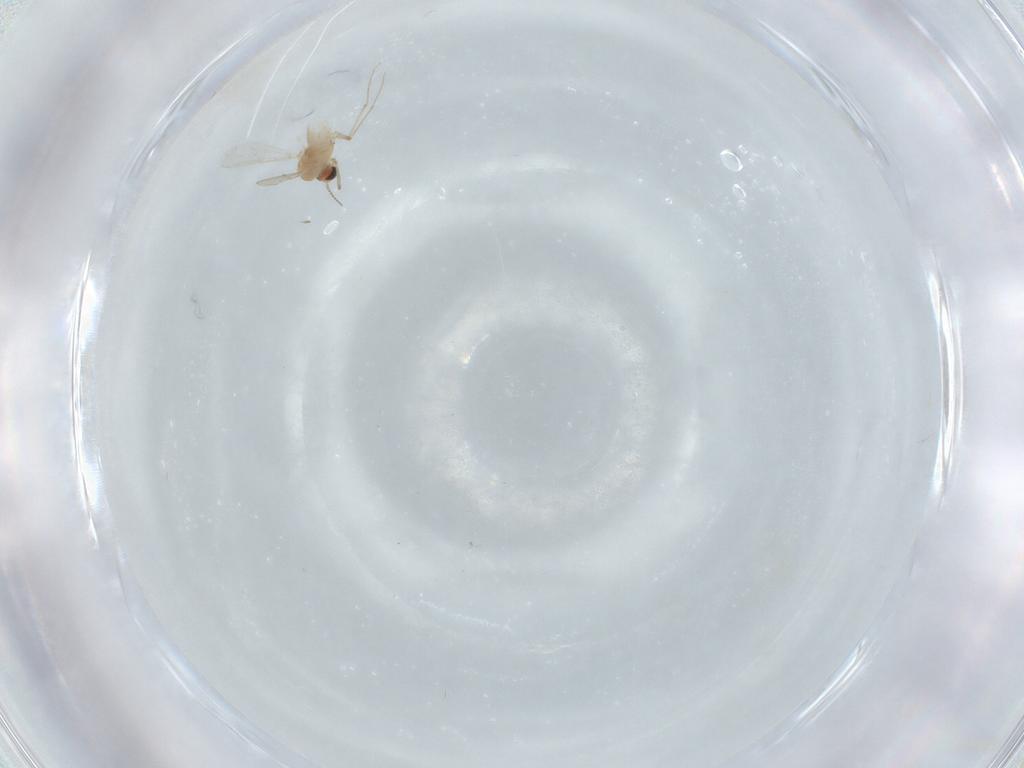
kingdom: Animalia
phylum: Arthropoda
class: Insecta
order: Diptera
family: Chironomidae
